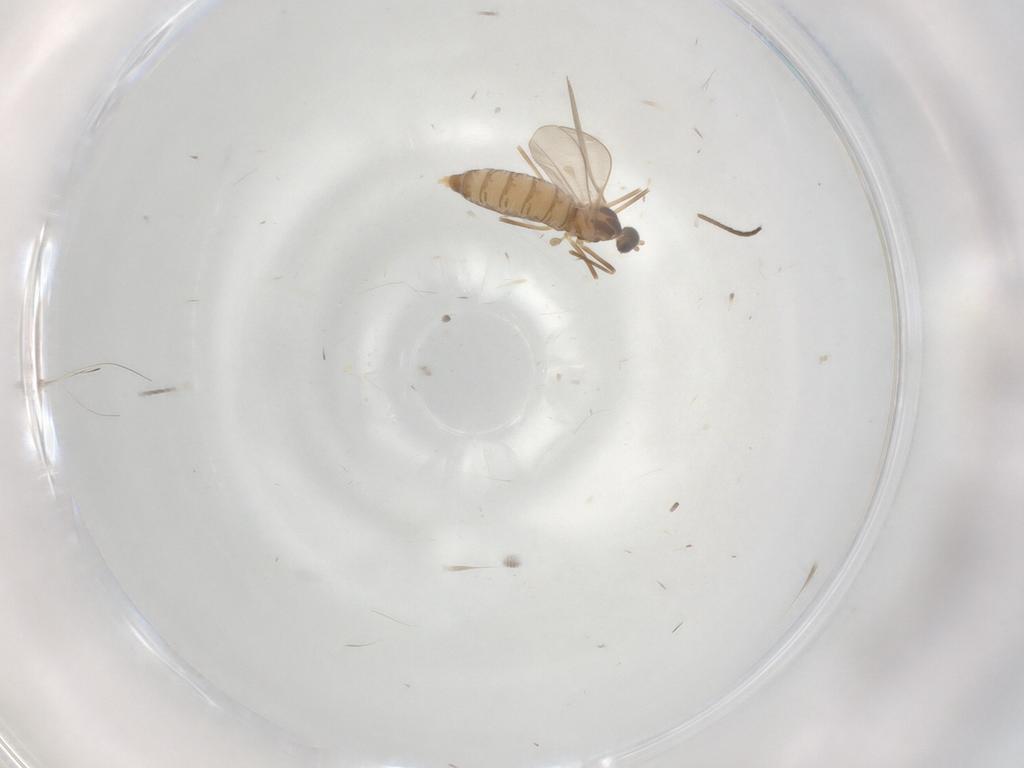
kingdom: Animalia
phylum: Arthropoda
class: Insecta
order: Diptera
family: Cecidomyiidae
